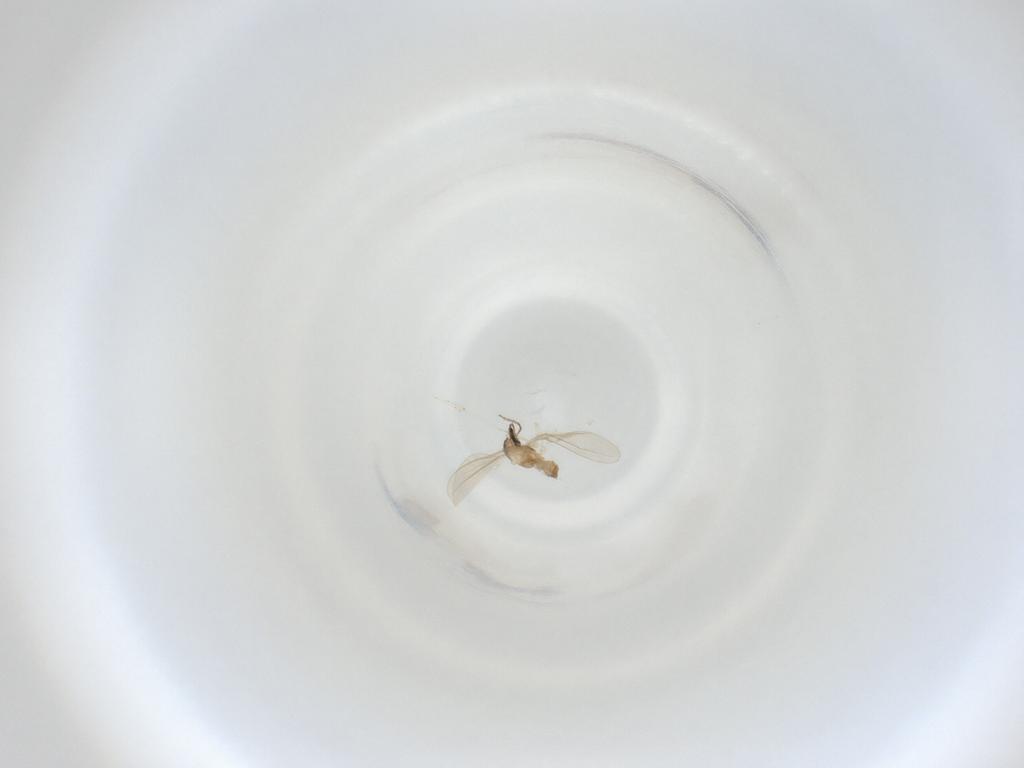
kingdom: Animalia
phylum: Arthropoda
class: Insecta
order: Diptera
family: Cecidomyiidae
